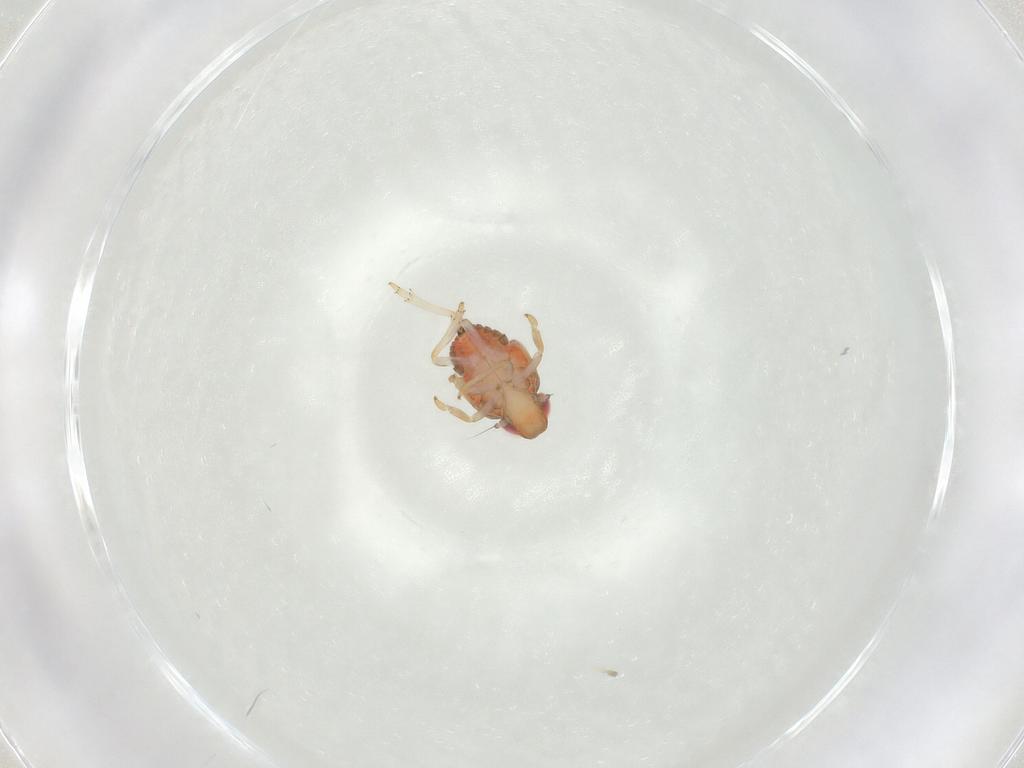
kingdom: Animalia
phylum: Arthropoda
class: Insecta
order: Hemiptera
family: Issidae
